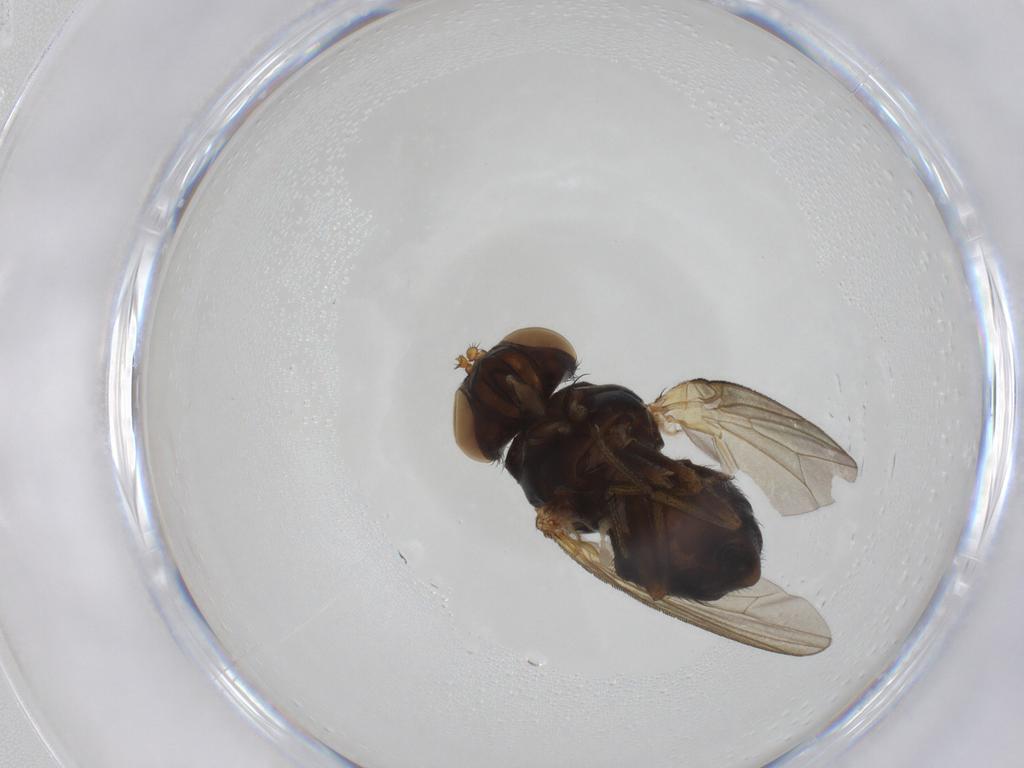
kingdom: Animalia
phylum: Arthropoda
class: Insecta
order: Diptera
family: Lauxaniidae
